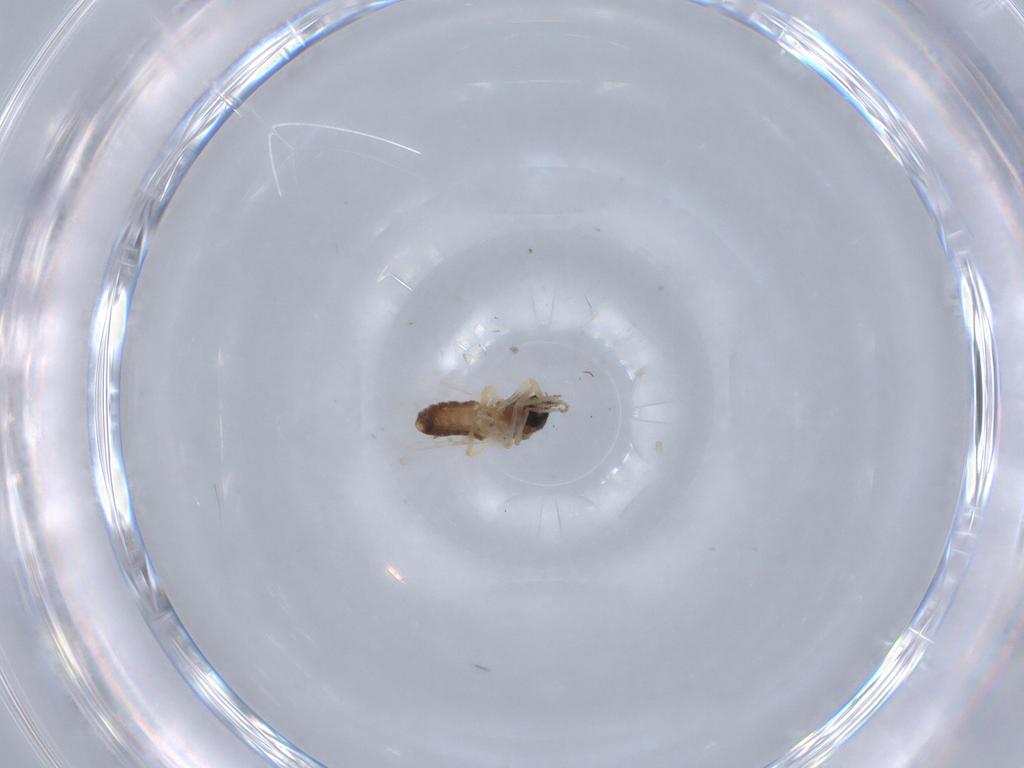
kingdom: Animalia
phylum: Arthropoda
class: Insecta
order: Diptera
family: Ceratopogonidae
